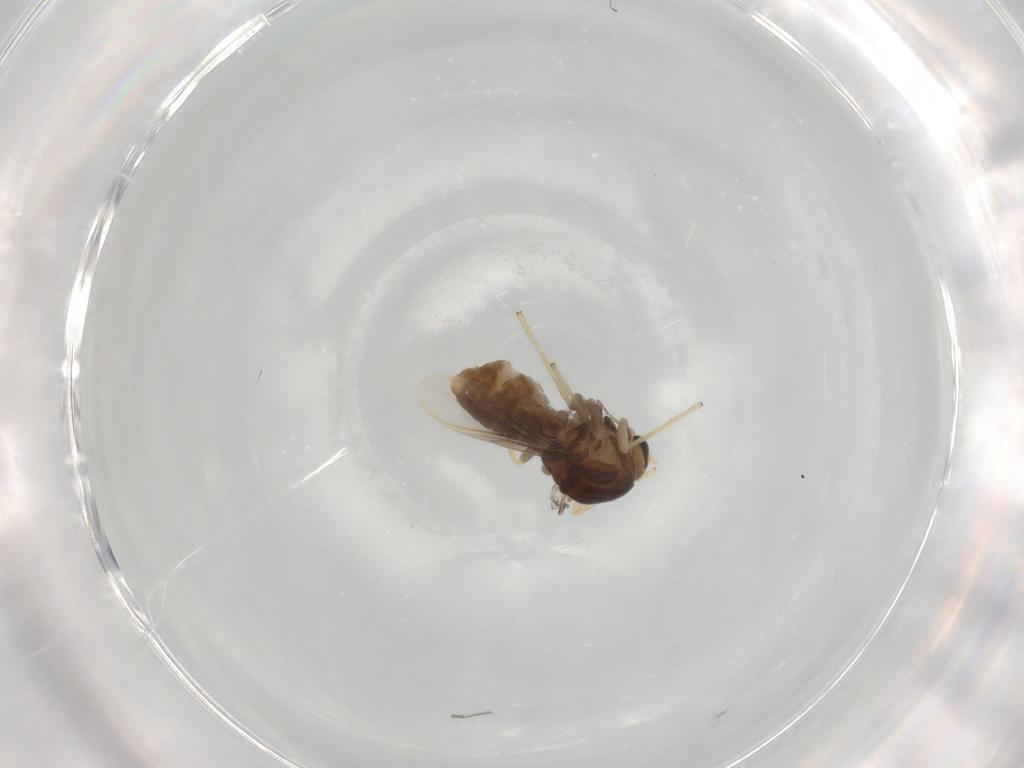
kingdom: Animalia
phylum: Arthropoda
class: Insecta
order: Diptera
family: Chironomidae
